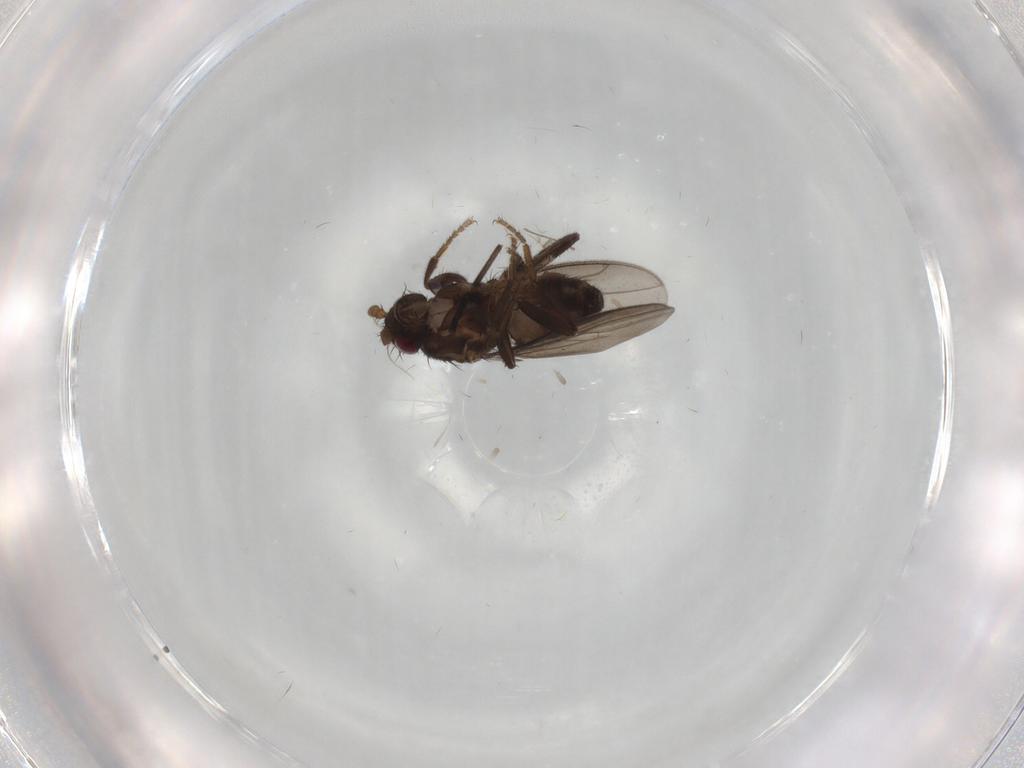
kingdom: Animalia
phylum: Arthropoda
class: Insecta
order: Diptera
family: Sphaeroceridae
